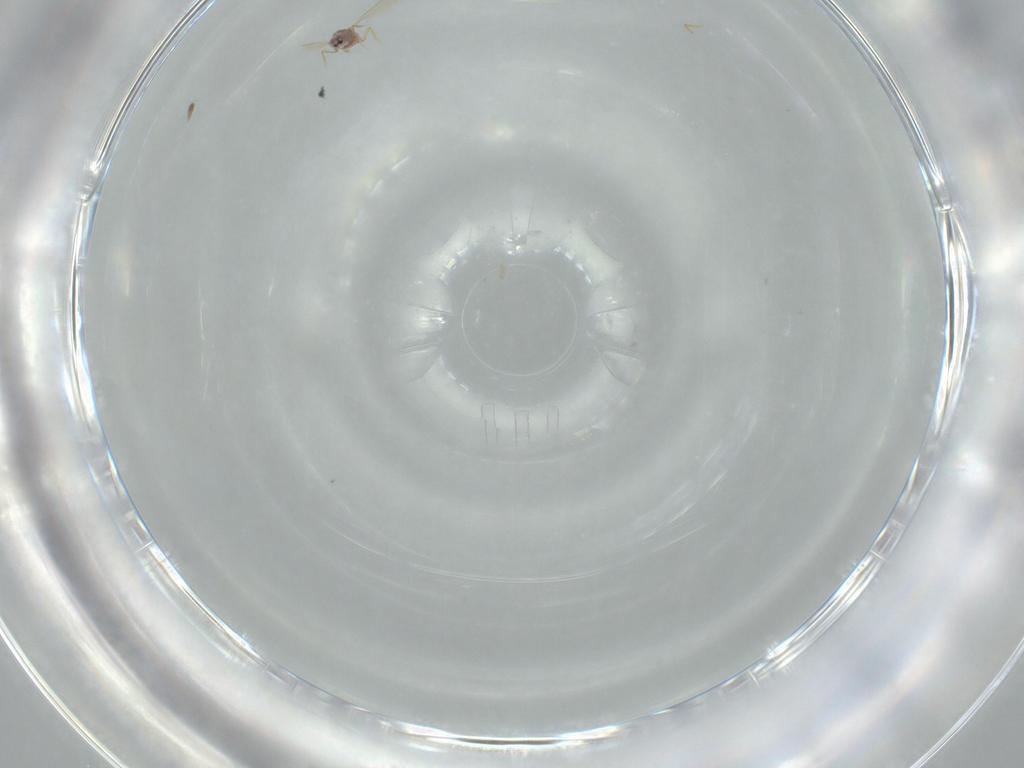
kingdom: Animalia
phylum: Arthropoda
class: Insecta
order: Hemiptera
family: Diaspididae
